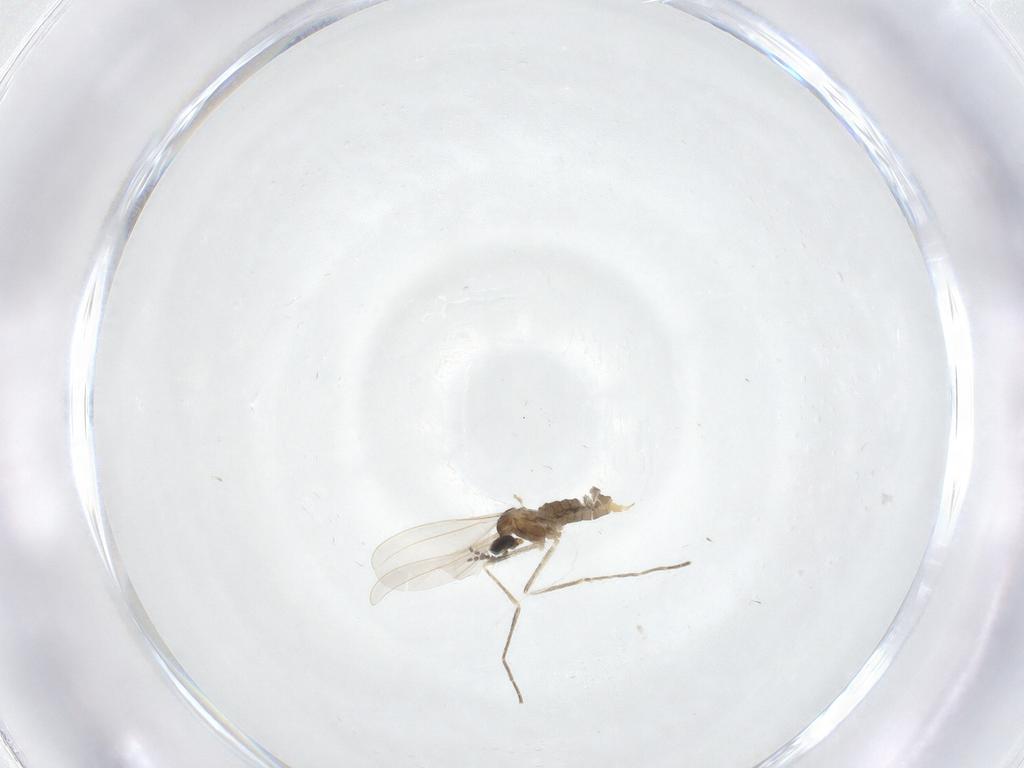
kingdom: Animalia
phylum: Arthropoda
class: Insecta
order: Diptera
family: Cecidomyiidae
